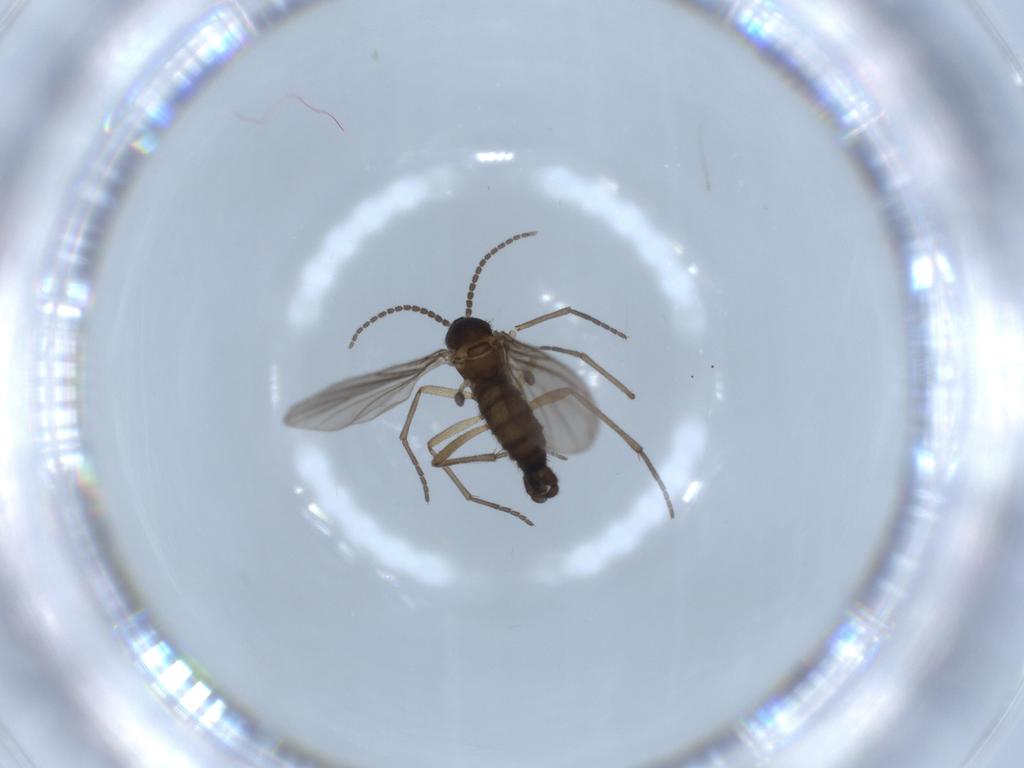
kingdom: Animalia
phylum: Arthropoda
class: Insecta
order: Diptera
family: Sciaridae
